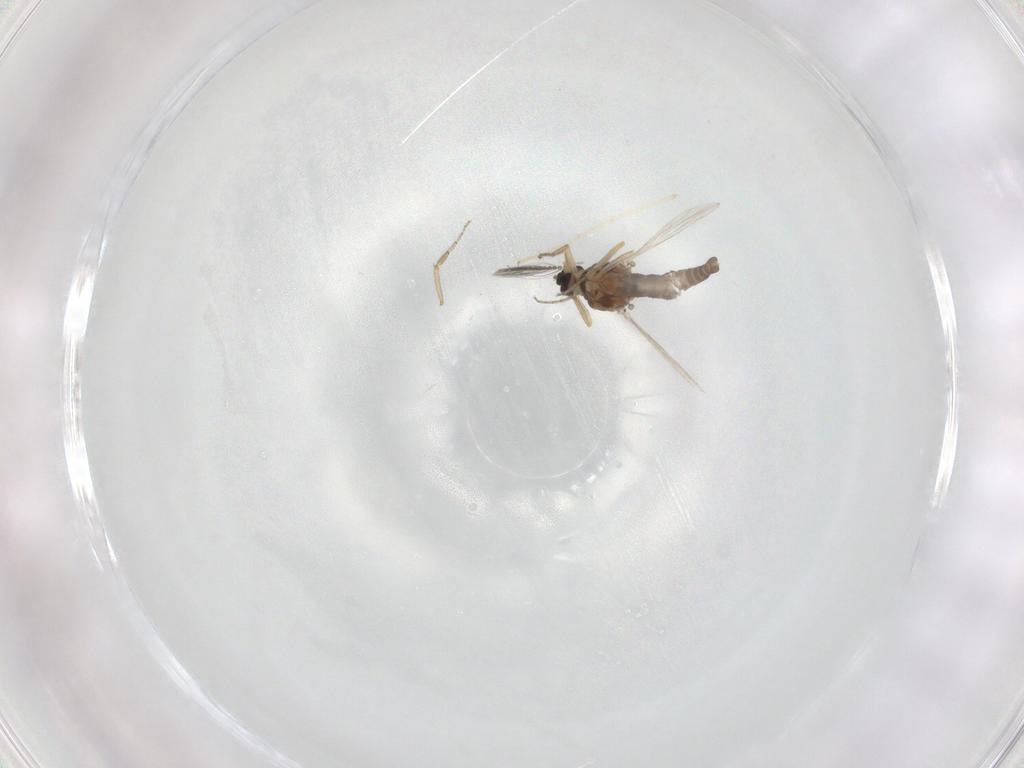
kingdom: Animalia
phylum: Arthropoda
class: Insecta
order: Diptera
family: Ceratopogonidae
